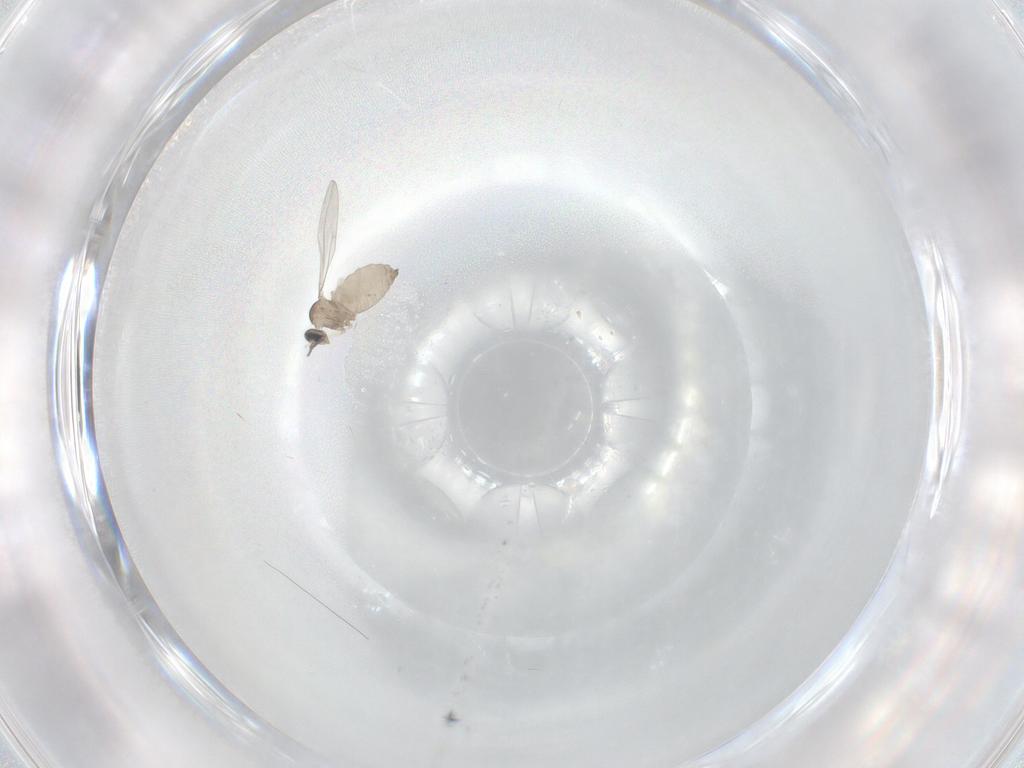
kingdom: Animalia
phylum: Arthropoda
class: Insecta
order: Diptera
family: Cecidomyiidae
